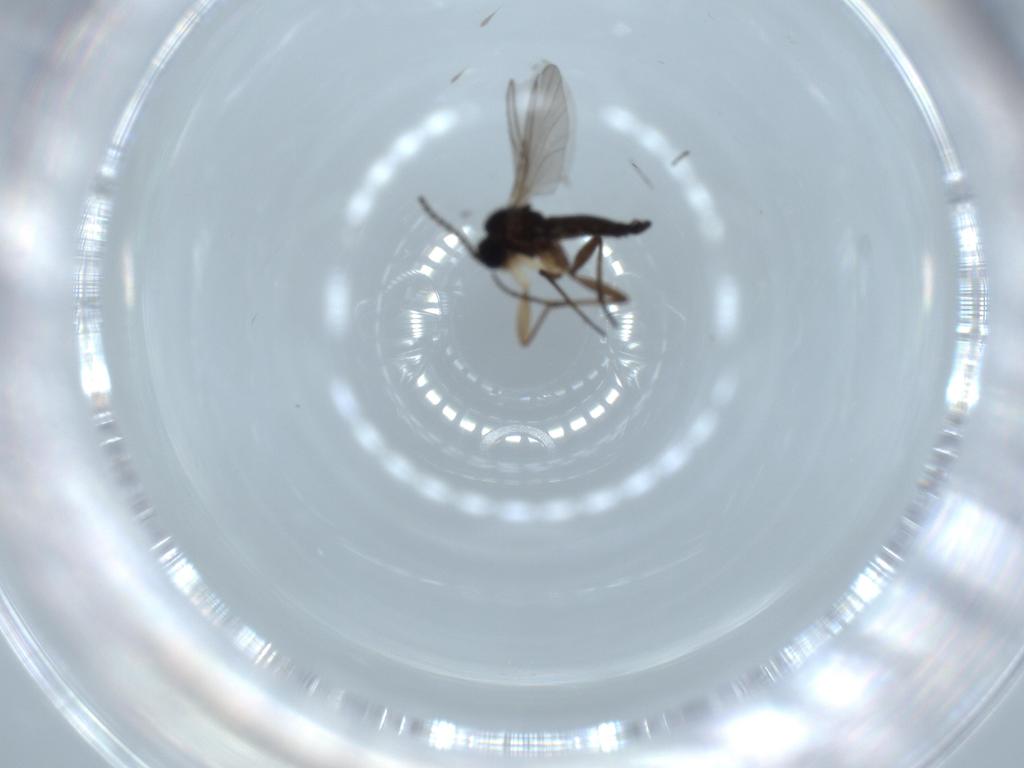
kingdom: Animalia
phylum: Arthropoda
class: Insecta
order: Diptera
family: Sciaridae
